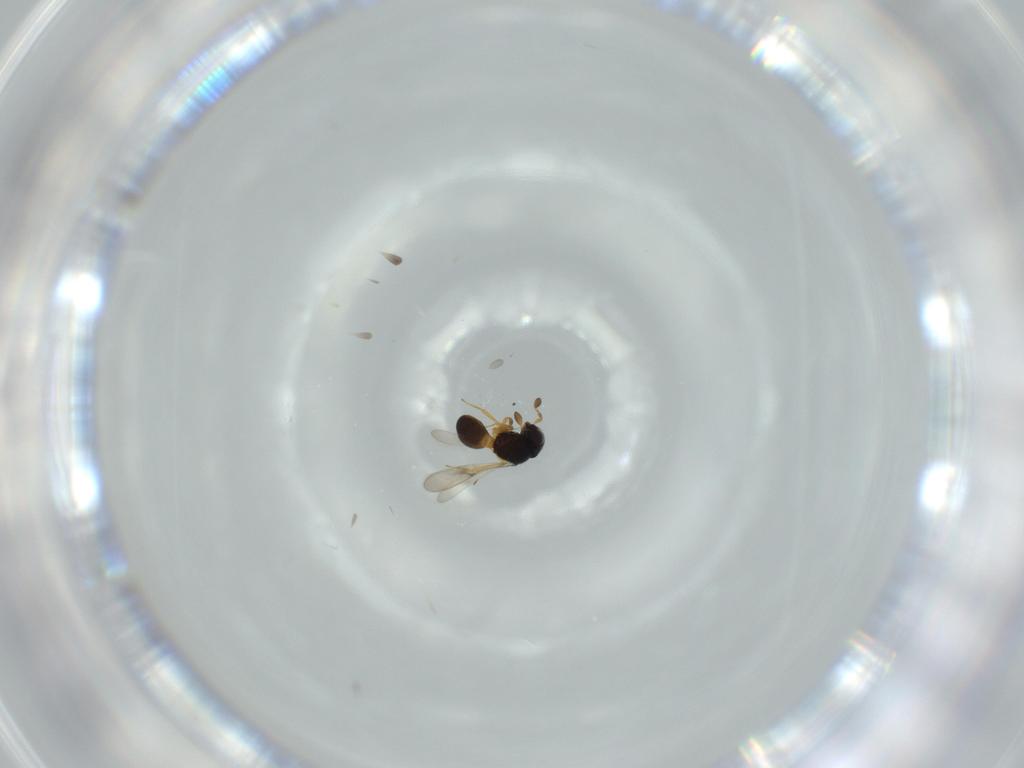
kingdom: Animalia
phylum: Arthropoda
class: Insecta
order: Hymenoptera
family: Scelionidae
